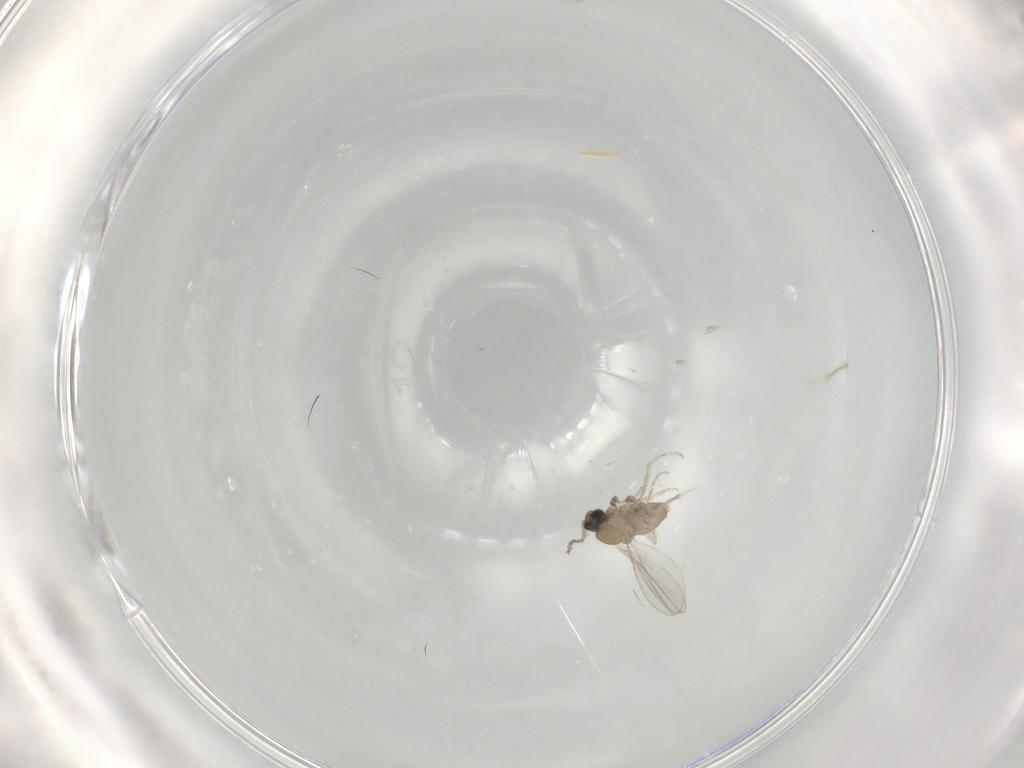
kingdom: Animalia
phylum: Arthropoda
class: Insecta
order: Diptera
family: Cecidomyiidae
